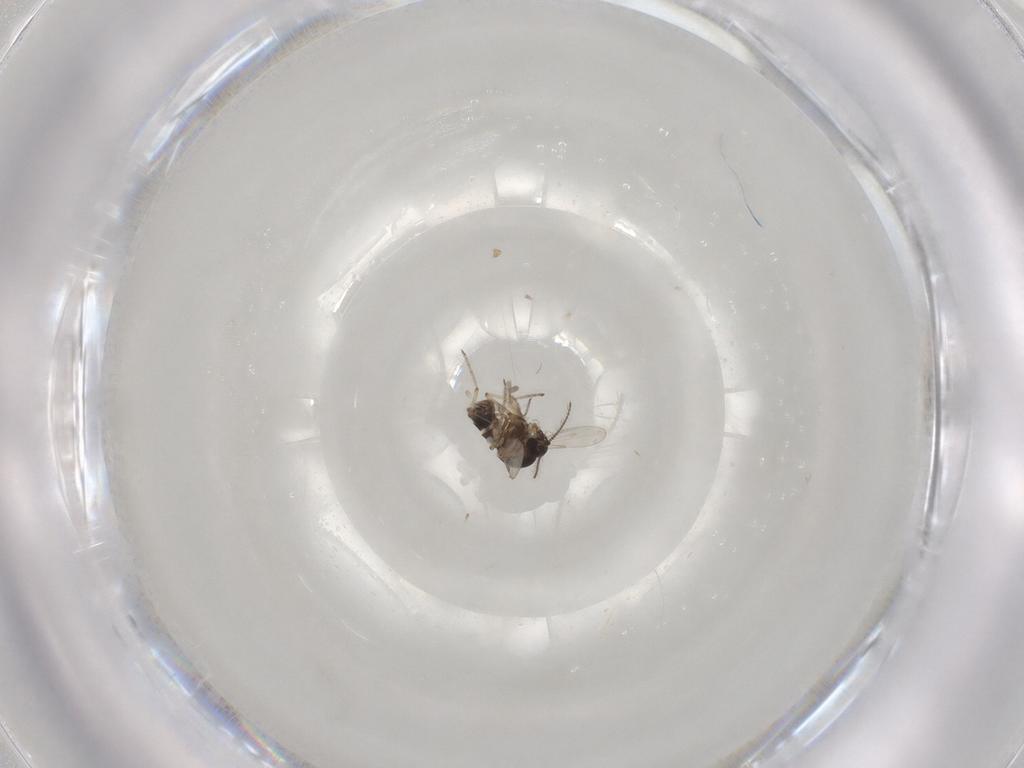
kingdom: Animalia
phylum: Arthropoda
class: Insecta
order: Diptera
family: Ceratopogonidae
